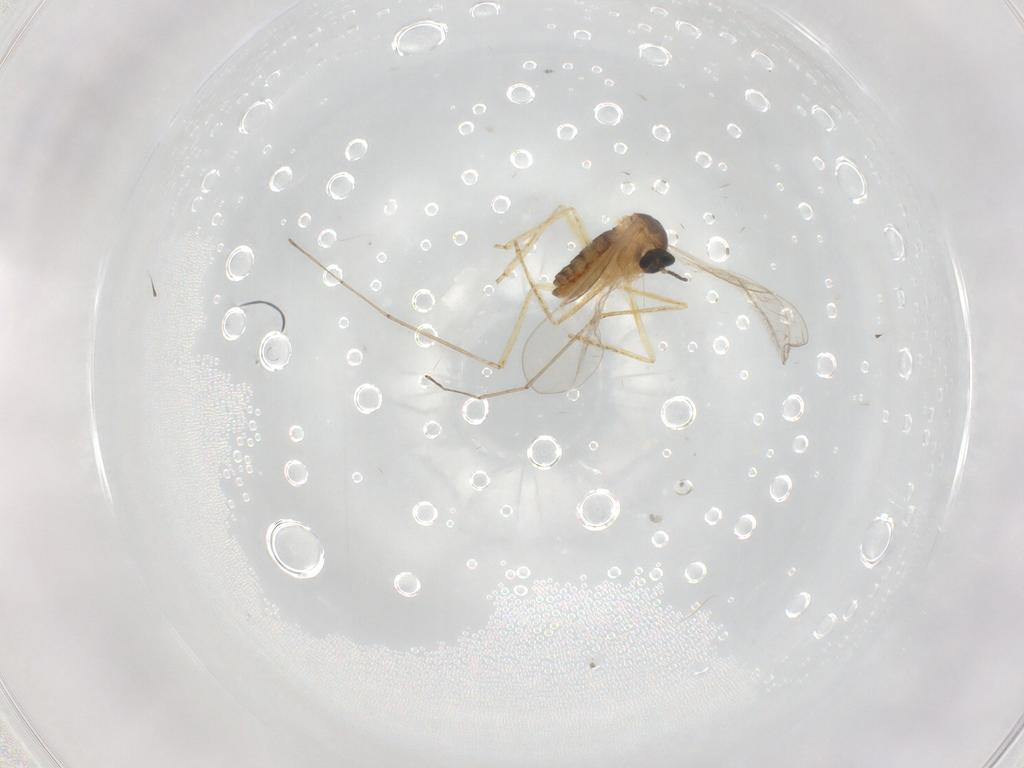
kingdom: Animalia
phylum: Arthropoda
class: Insecta
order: Diptera
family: Cecidomyiidae
